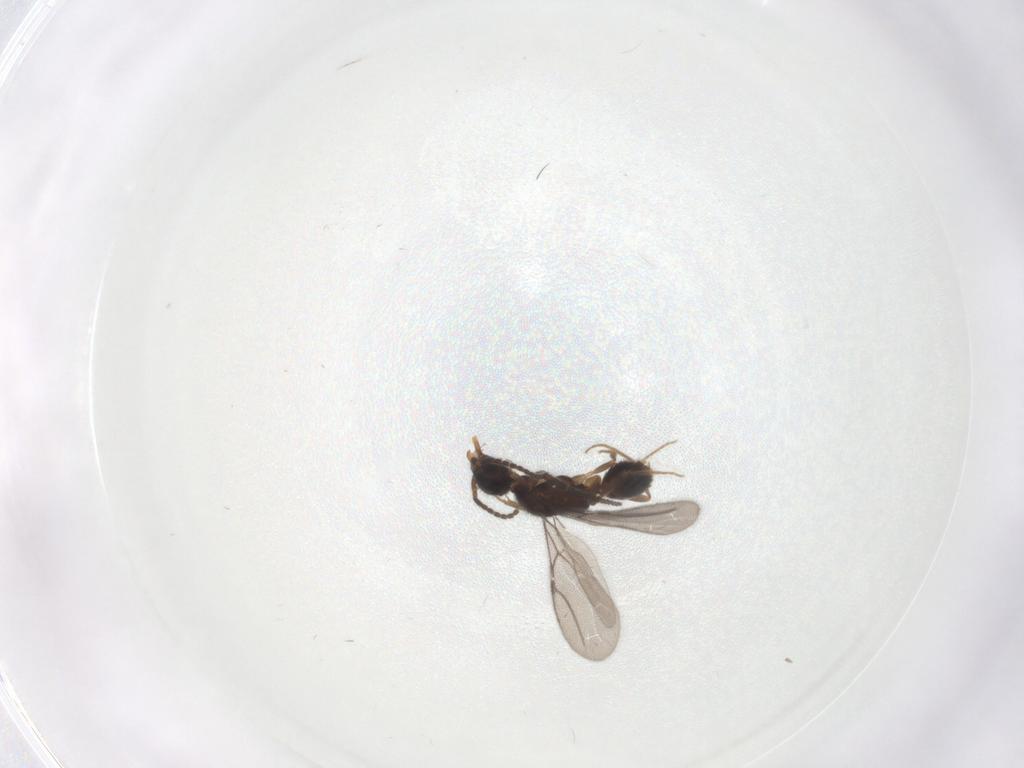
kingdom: Animalia
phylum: Arthropoda
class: Insecta
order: Hymenoptera
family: Bethylidae
